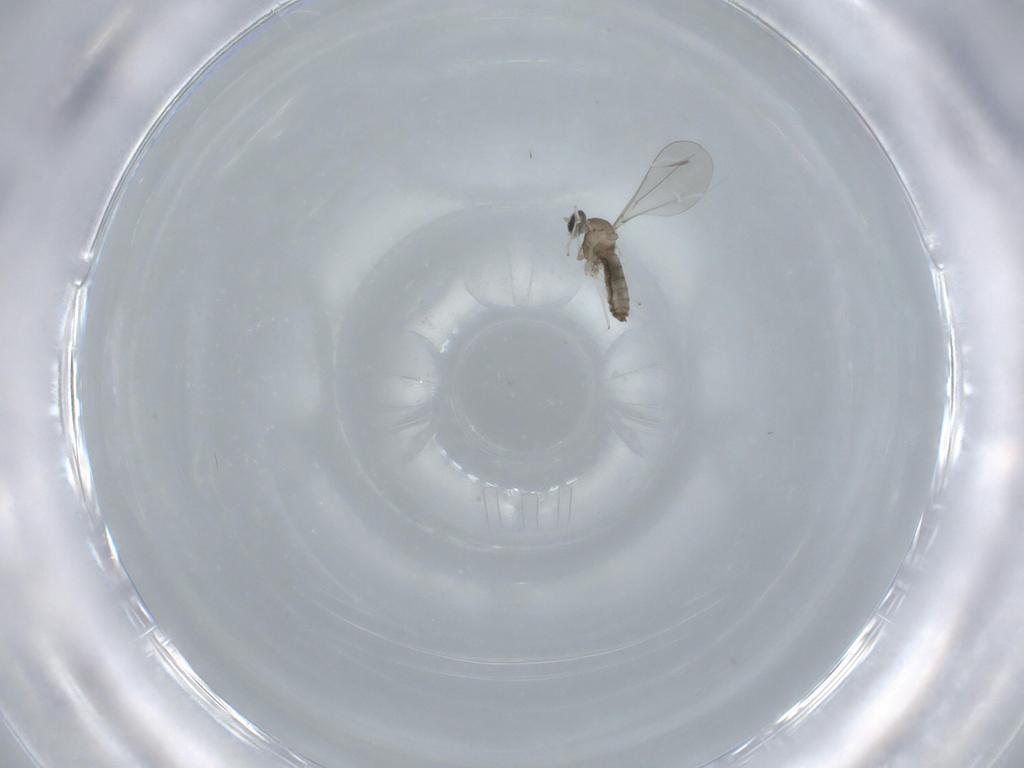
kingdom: Animalia
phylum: Arthropoda
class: Insecta
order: Diptera
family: Cecidomyiidae
